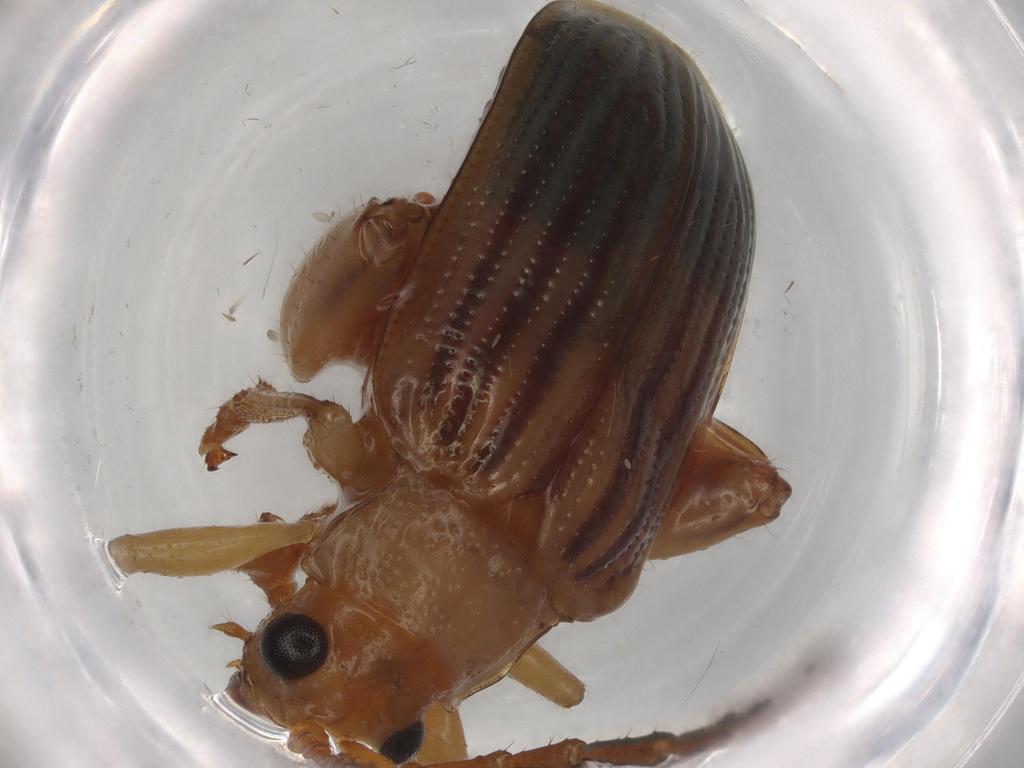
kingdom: Animalia
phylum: Arthropoda
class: Insecta
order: Coleoptera
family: Chrysomelidae
